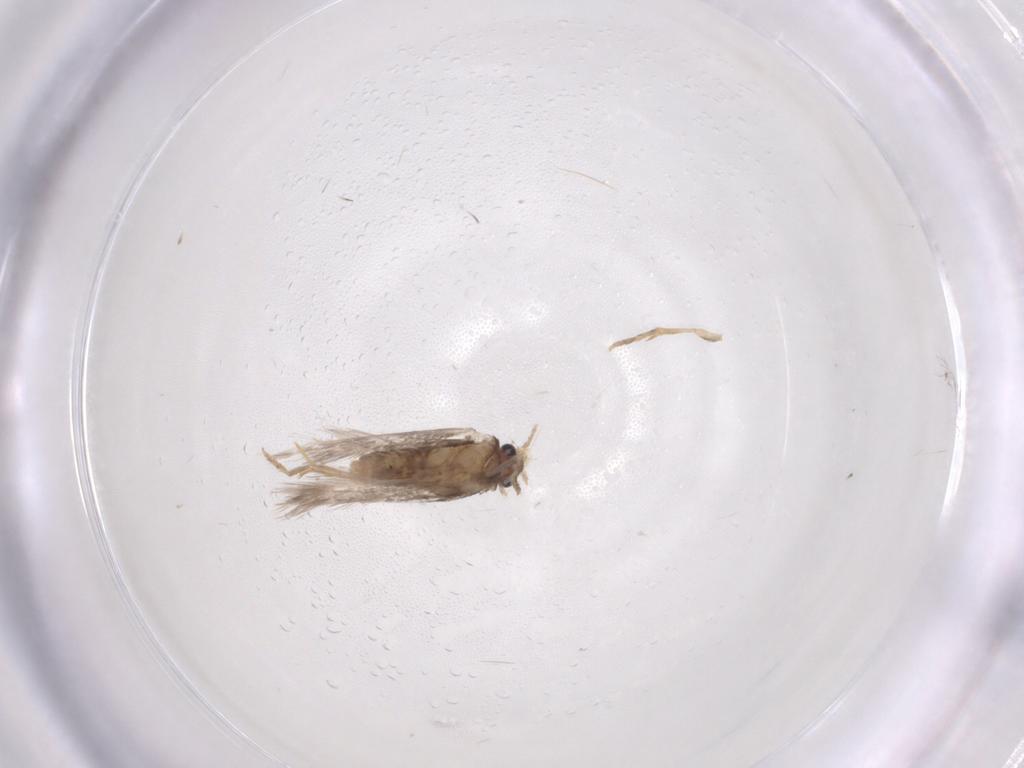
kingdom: Animalia
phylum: Arthropoda
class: Insecta
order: Lepidoptera
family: Nepticulidae
